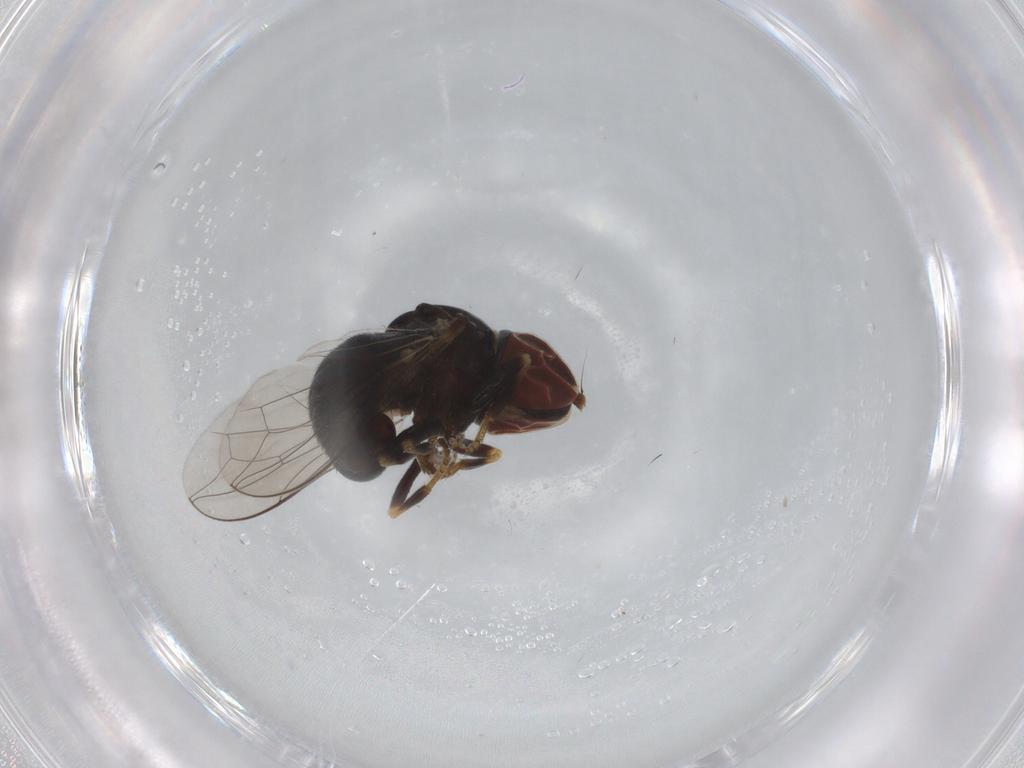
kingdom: Animalia
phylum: Arthropoda
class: Insecta
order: Diptera
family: Pipunculidae
